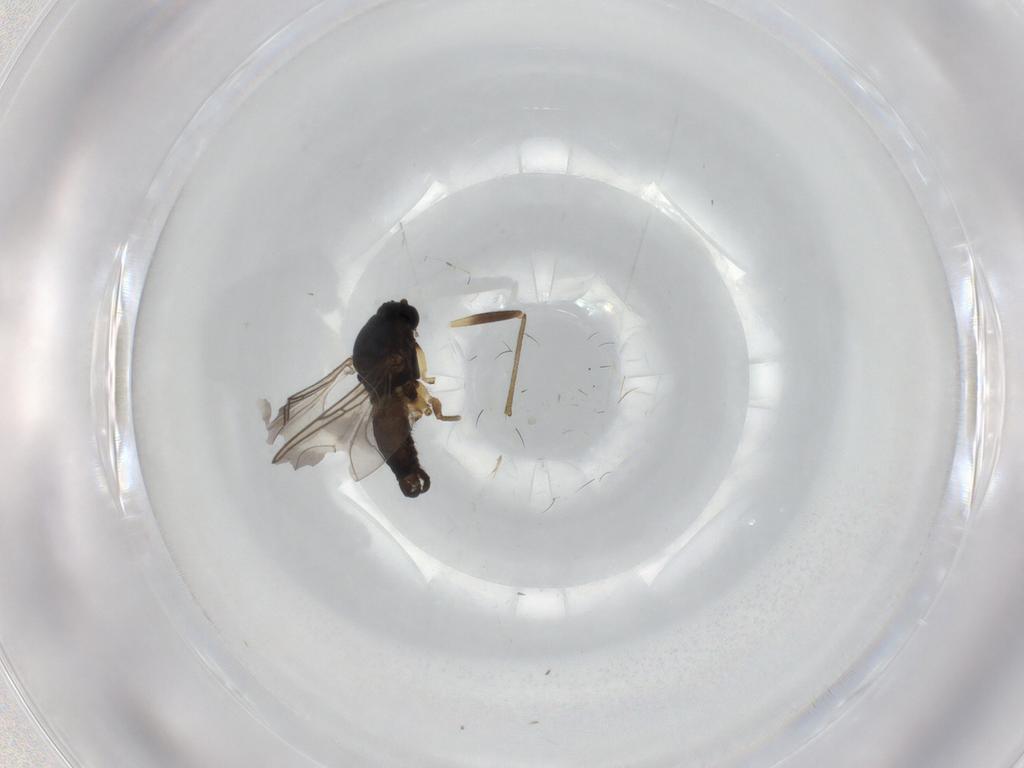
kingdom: Animalia
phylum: Arthropoda
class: Insecta
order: Diptera
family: Sciaridae
